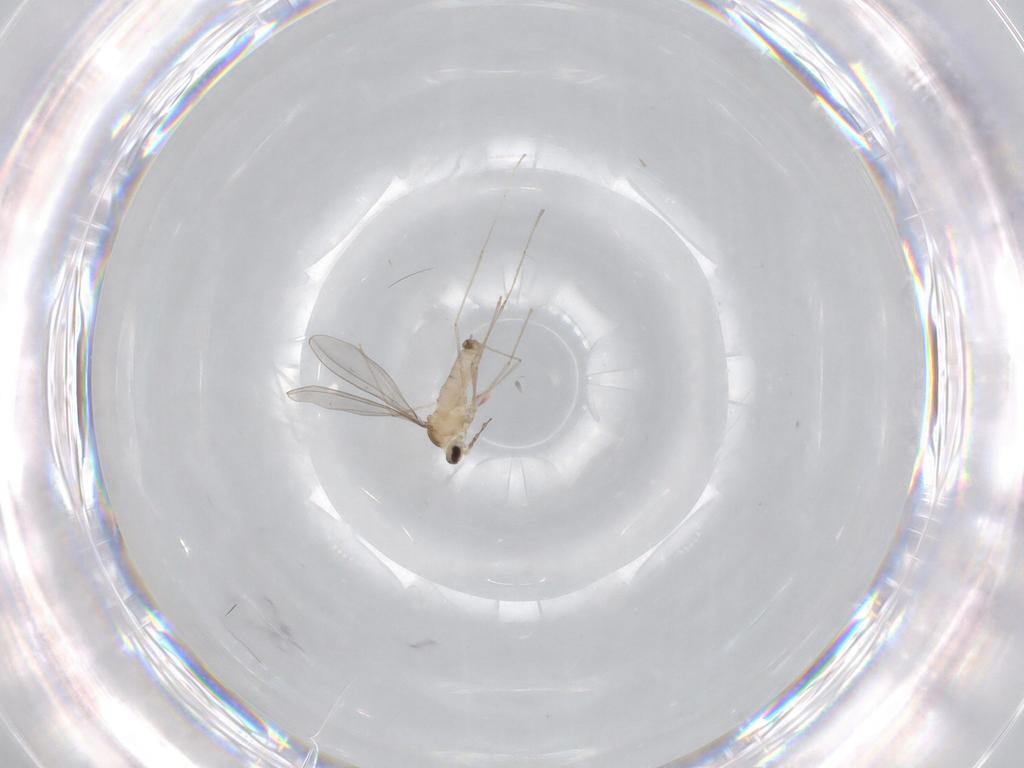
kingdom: Animalia
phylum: Arthropoda
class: Insecta
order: Diptera
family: Cecidomyiidae
